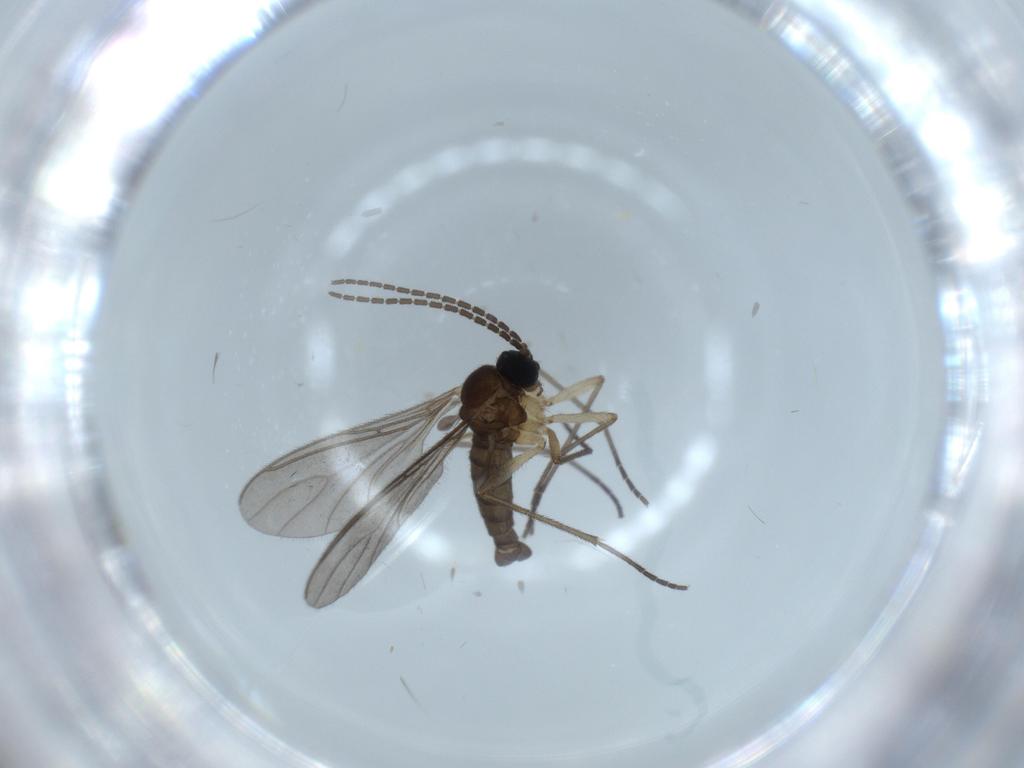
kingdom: Animalia
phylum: Arthropoda
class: Insecta
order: Diptera
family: Sciaridae
